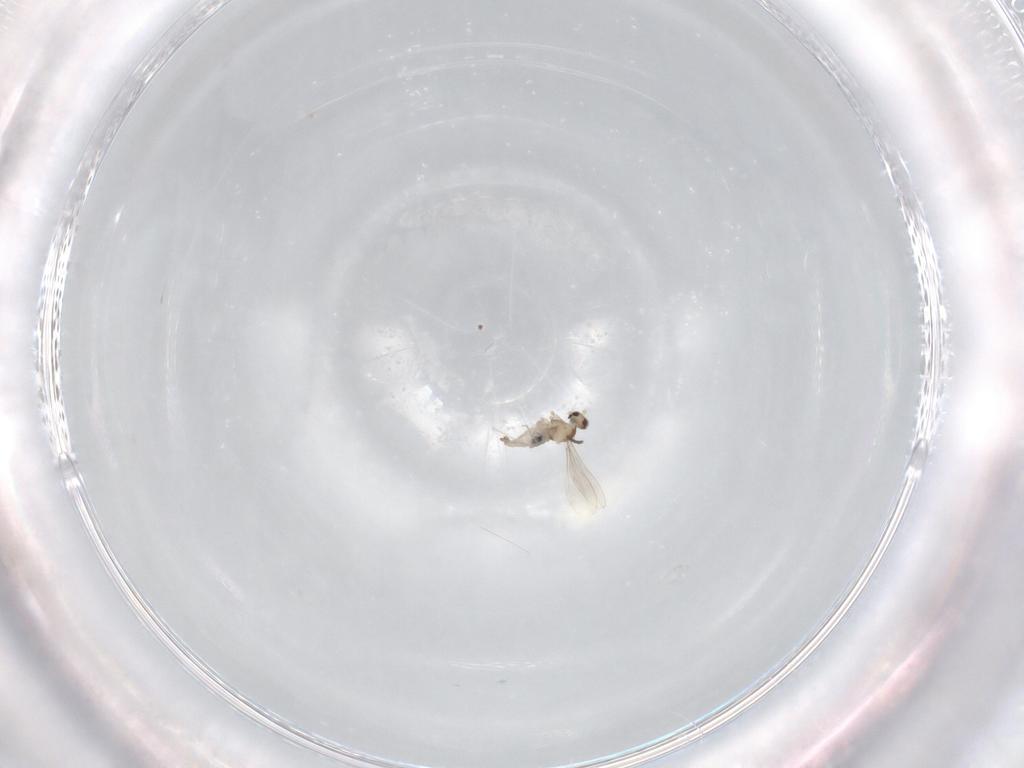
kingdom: Animalia
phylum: Arthropoda
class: Insecta
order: Diptera
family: Cecidomyiidae
